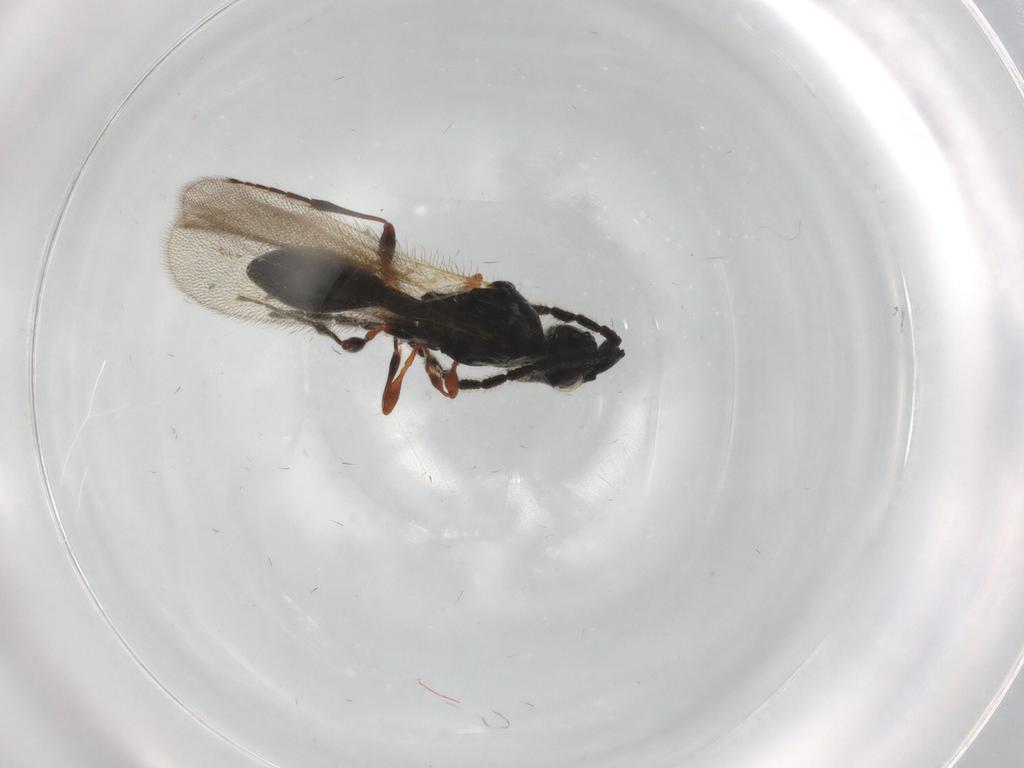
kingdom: Animalia
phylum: Arthropoda
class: Insecta
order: Hymenoptera
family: Diapriidae
